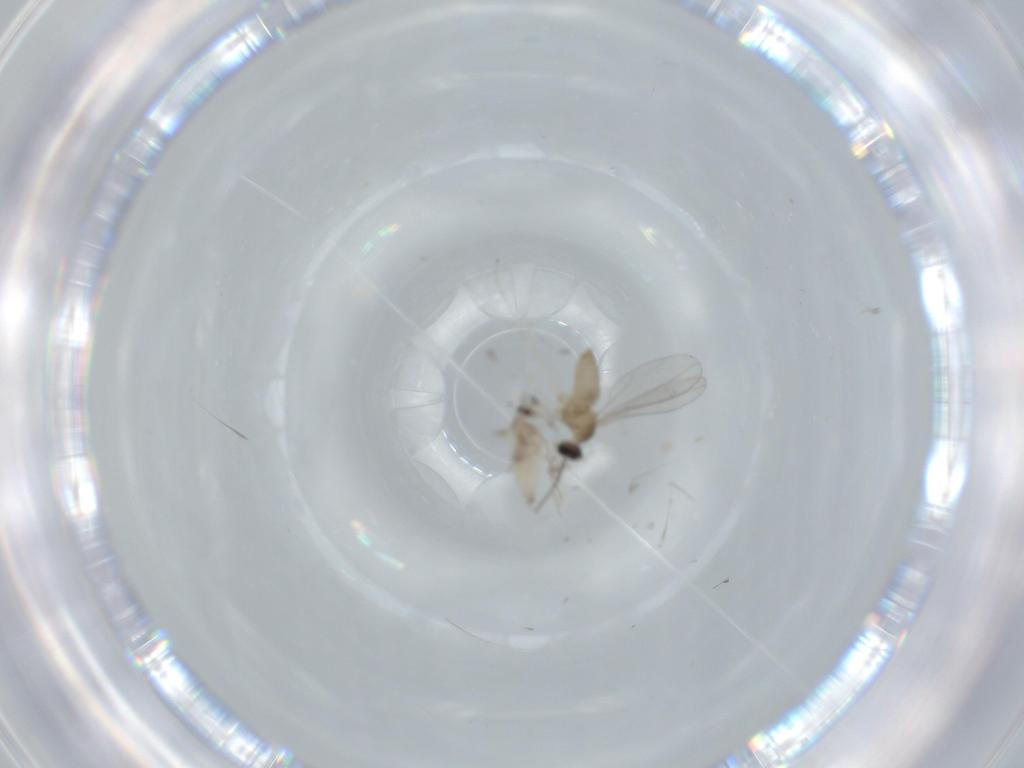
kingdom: Animalia
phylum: Arthropoda
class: Insecta
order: Diptera
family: Cecidomyiidae
